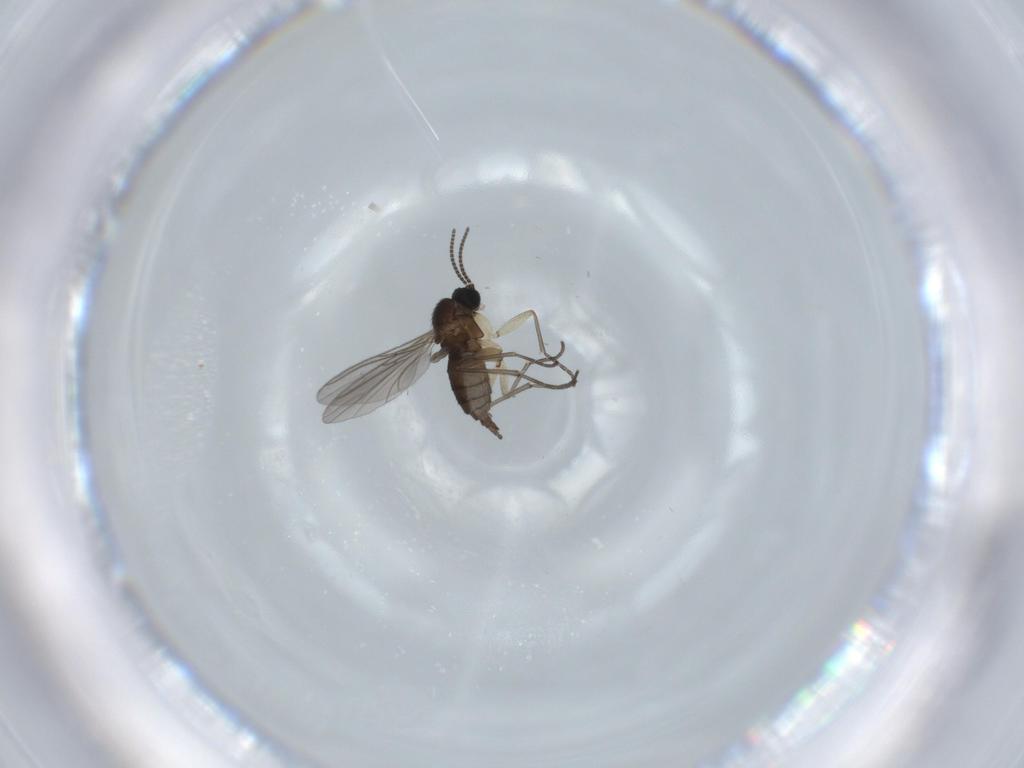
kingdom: Animalia
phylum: Arthropoda
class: Insecta
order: Diptera
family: Sciaridae
